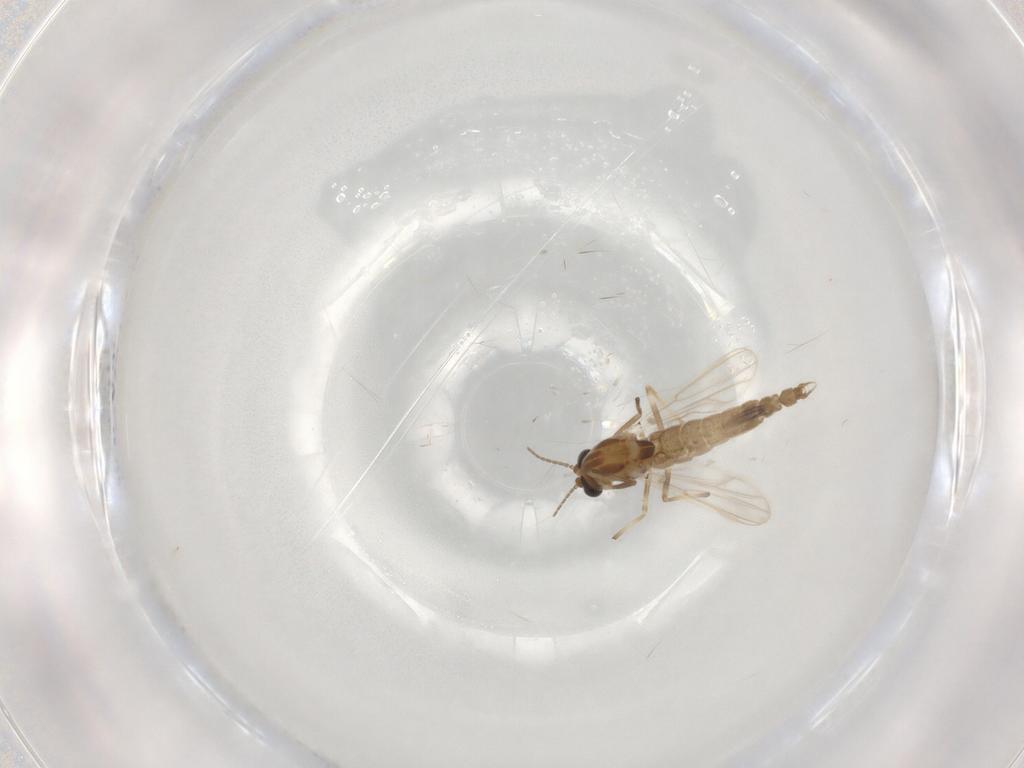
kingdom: Animalia
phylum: Arthropoda
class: Insecta
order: Diptera
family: Chironomidae
